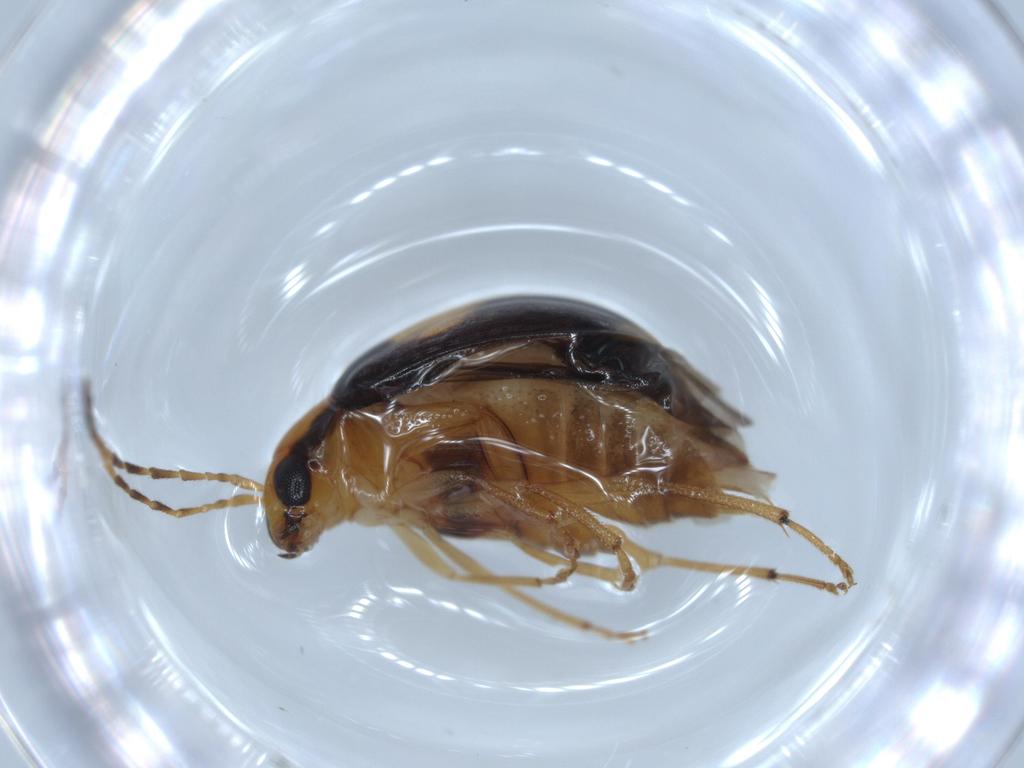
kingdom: Animalia
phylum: Arthropoda
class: Insecta
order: Coleoptera
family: Chrysomelidae
